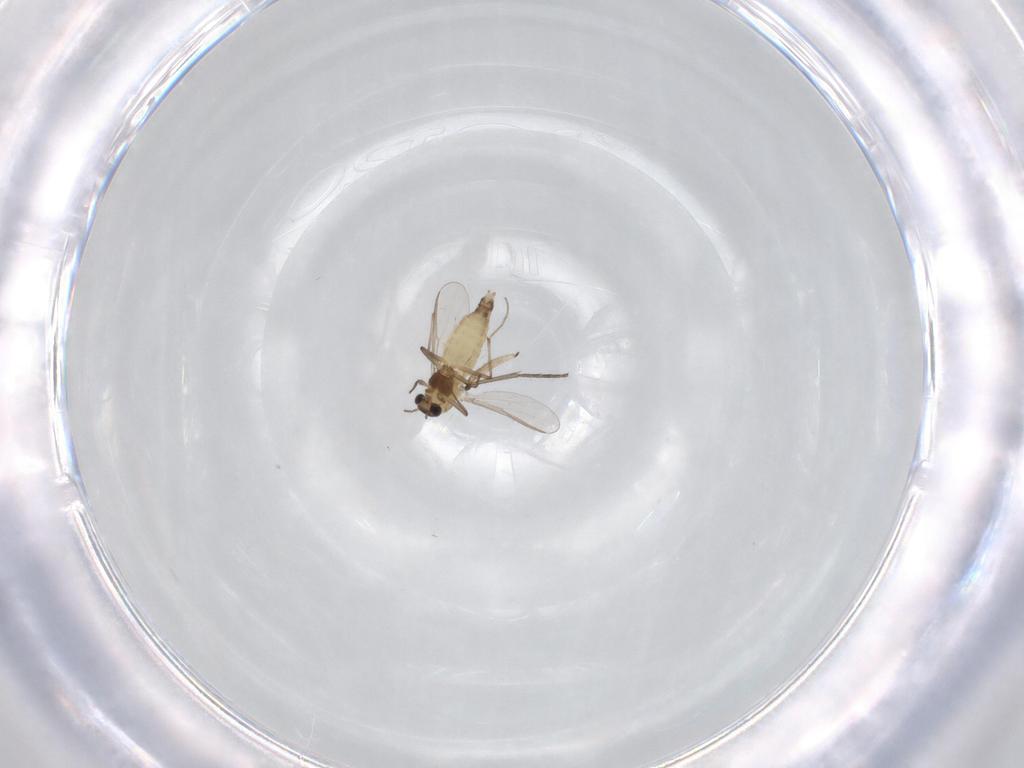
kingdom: Animalia
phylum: Arthropoda
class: Insecta
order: Diptera
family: Chironomidae
